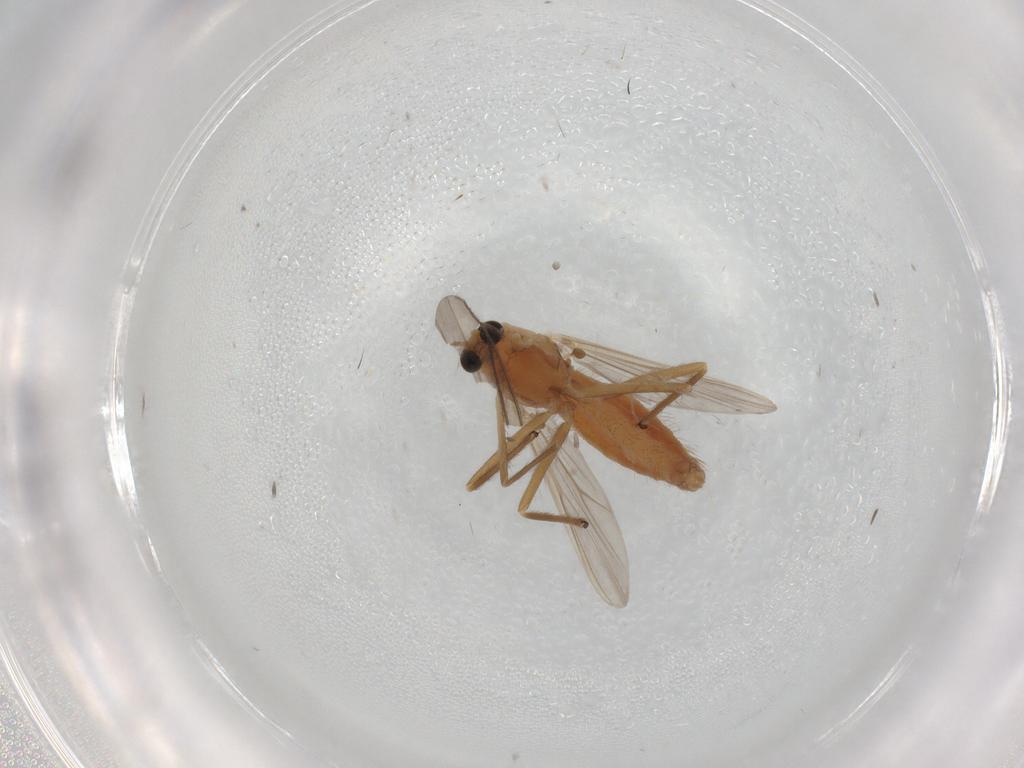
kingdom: Animalia
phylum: Arthropoda
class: Insecta
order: Diptera
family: Chironomidae
